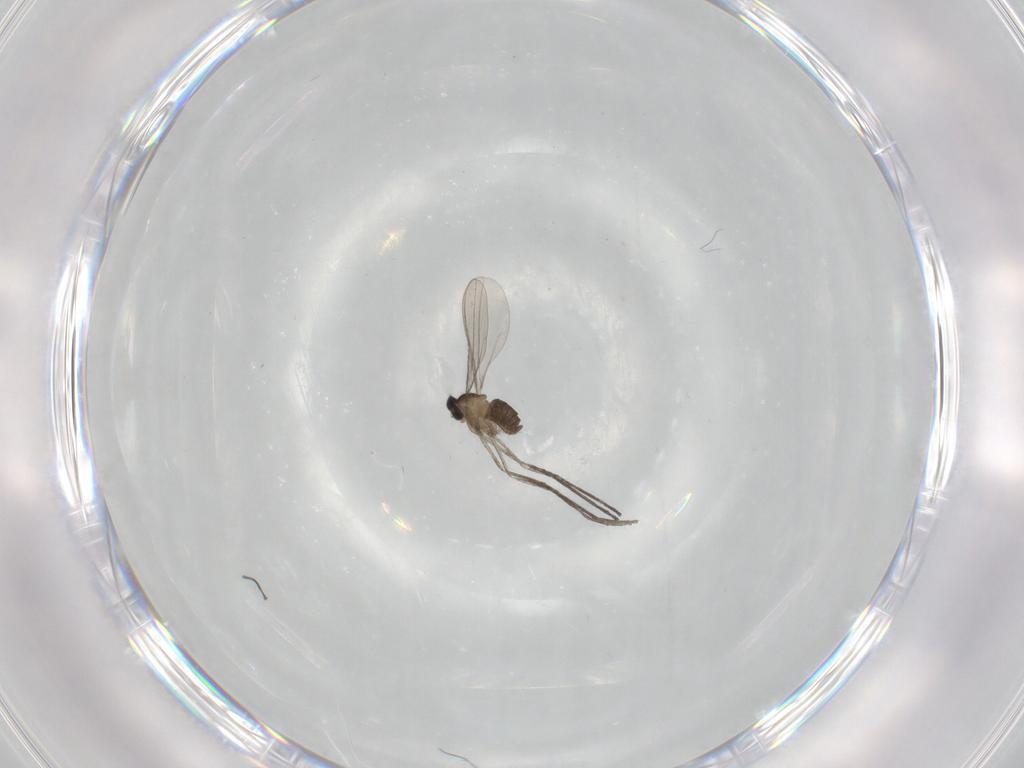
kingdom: Animalia
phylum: Arthropoda
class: Insecta
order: Diptera
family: Cecidomyiidae
